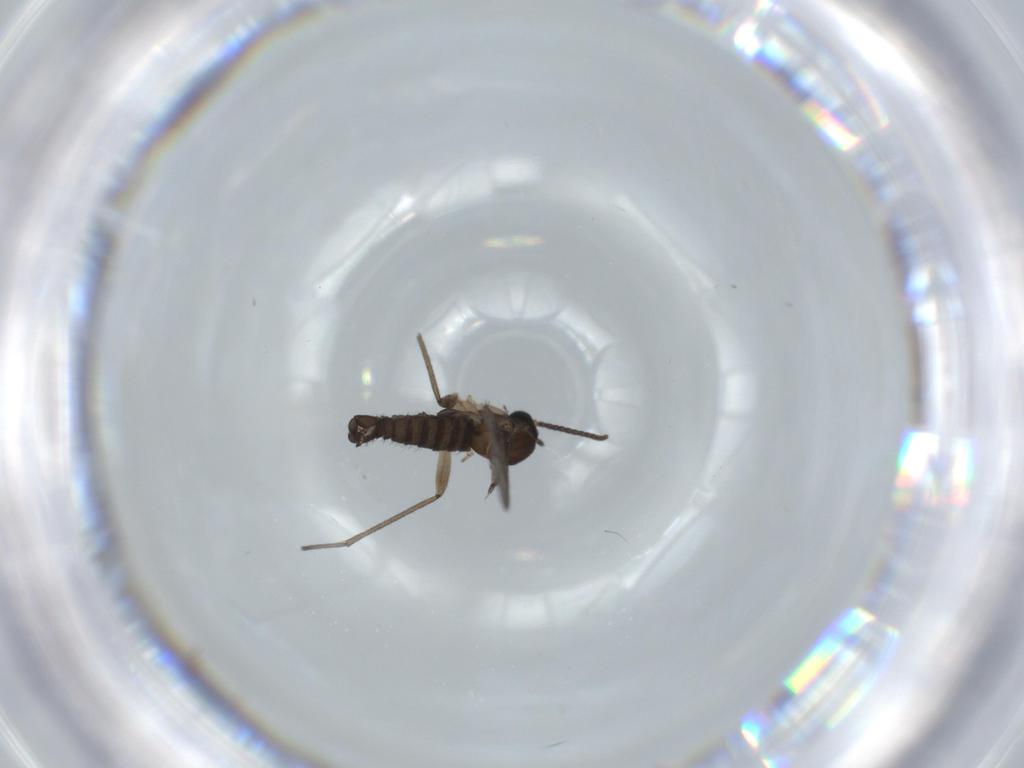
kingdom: Animalia
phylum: Arthropoda
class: Insecta
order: Diptera
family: Sciaridae
